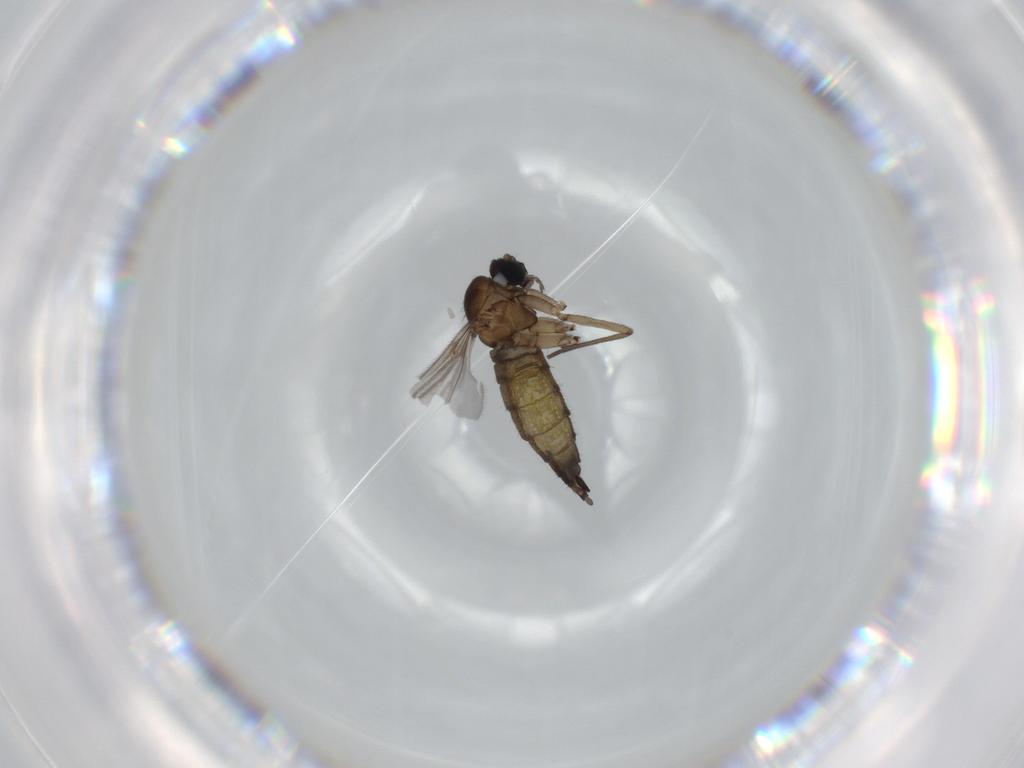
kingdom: Animalia
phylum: Arthropoda
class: Insecta
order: Diptera
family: Sciaridae
